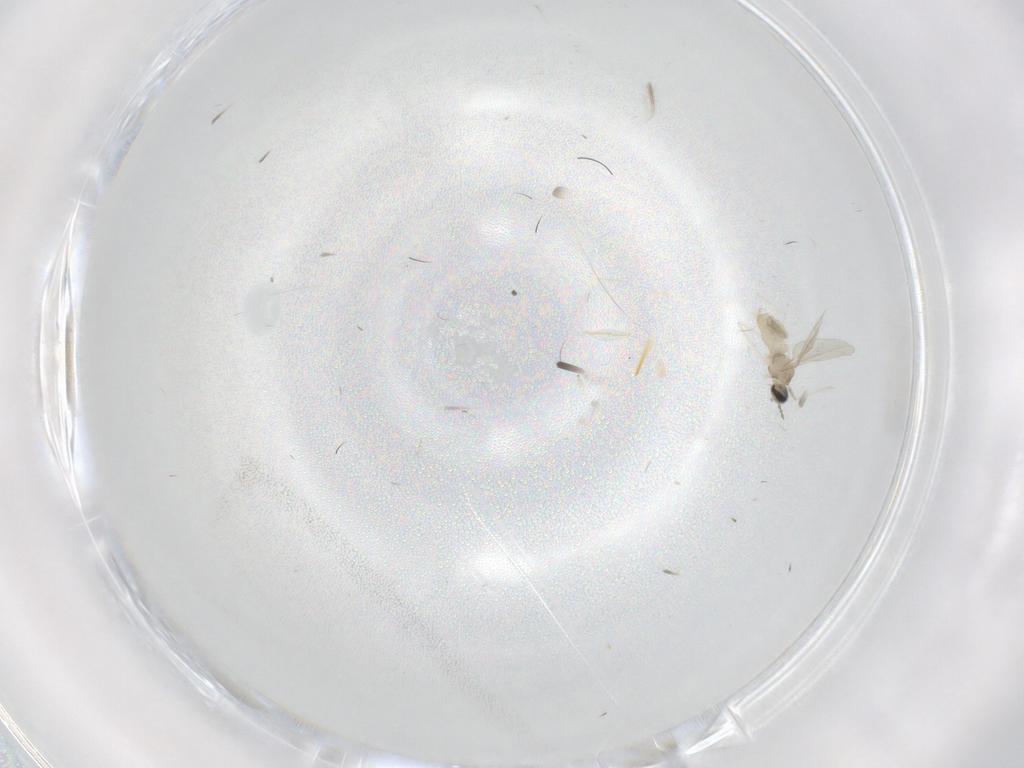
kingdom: Animalia
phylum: Arthropoda
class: Insecta
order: Diptera
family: Cecidomyiidae
